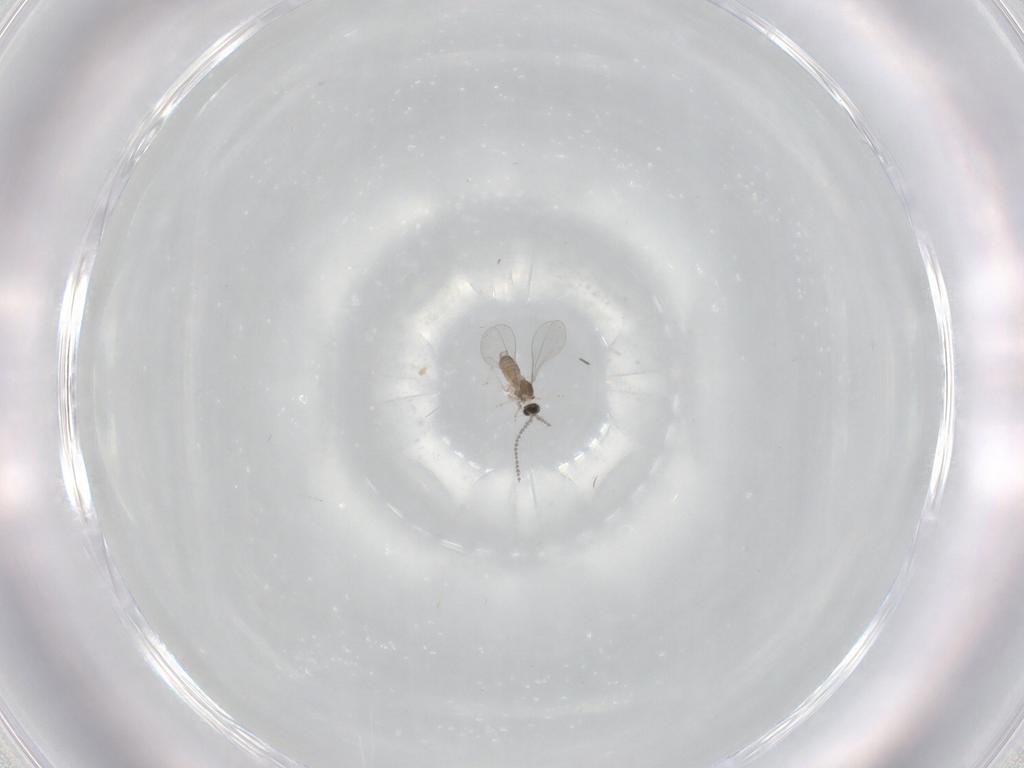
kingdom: Animalia
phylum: Arthropoda
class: Insecta
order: Diptera
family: Cecidomyiidae
